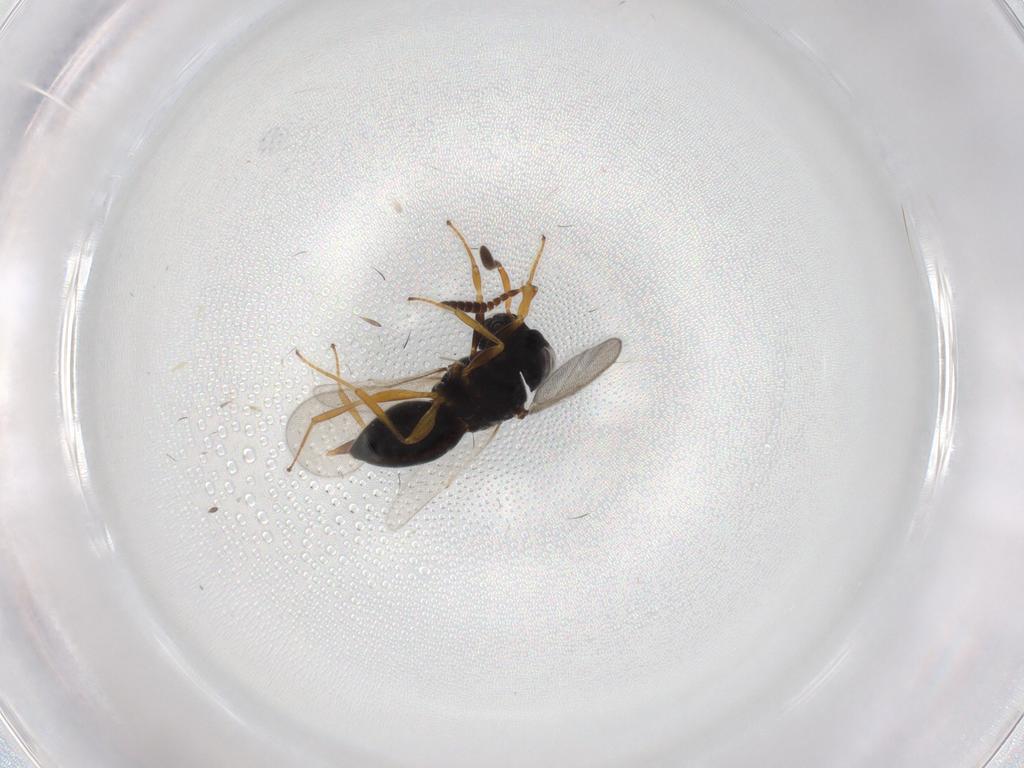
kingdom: Animalia
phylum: Arthropoda
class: Insecta
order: Hymenoptera
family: Scelionidae
